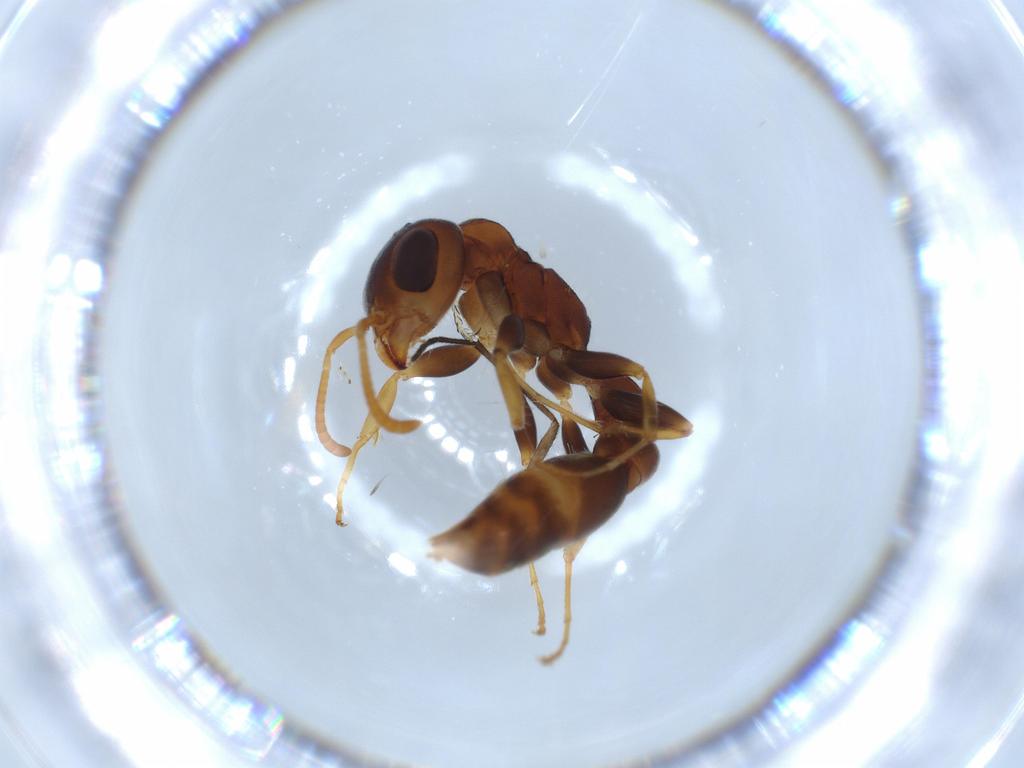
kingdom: Animalia
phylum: Arthropoda
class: Insecta
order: Hymenoptera
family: Formicidae
